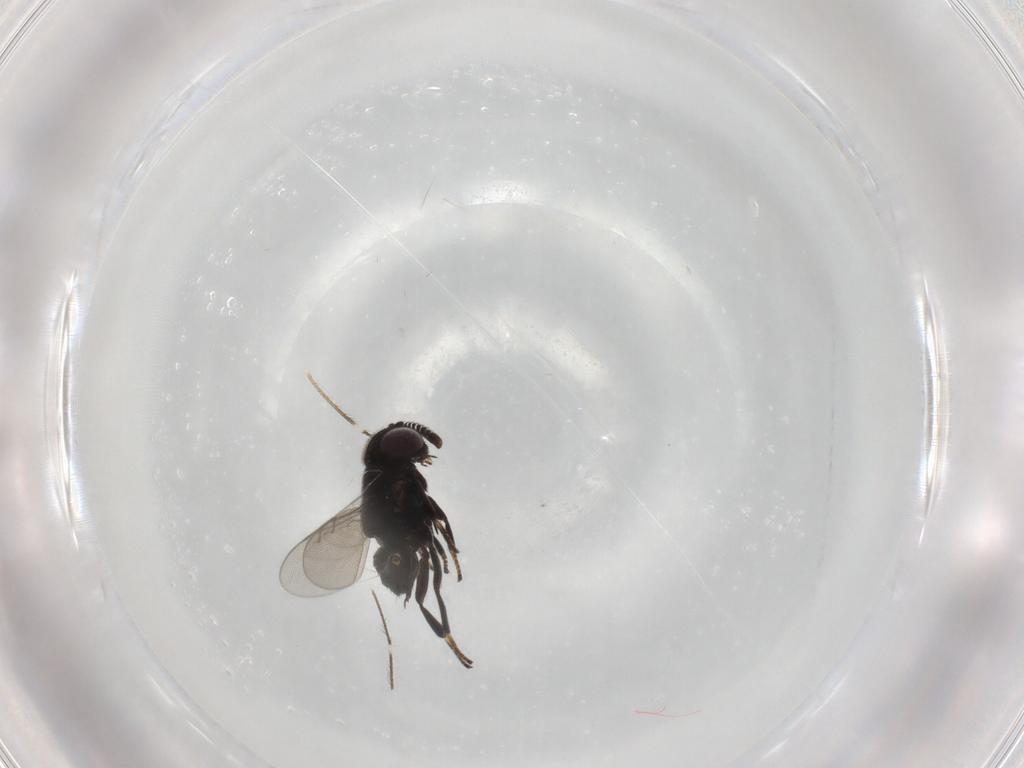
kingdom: Animalia
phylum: Arthropoda
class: Insecta
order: Hymenoptera
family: Encyrtidae
